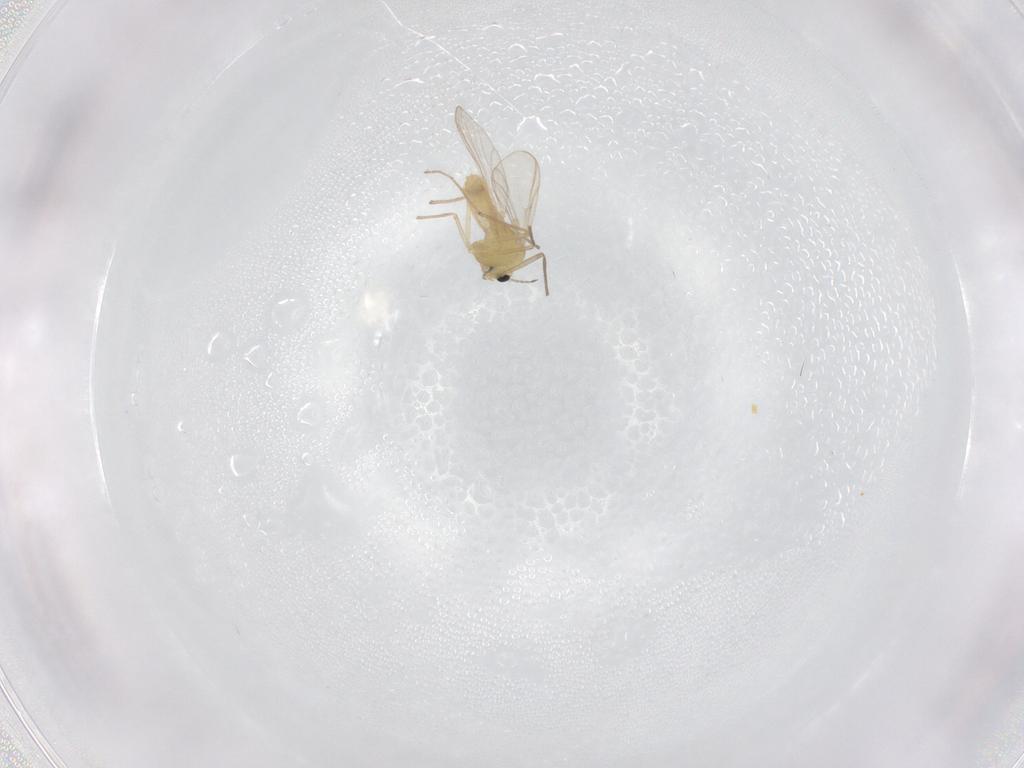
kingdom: Animalia
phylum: Arthropoda
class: Insecta
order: Diptera
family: Chironomidae
